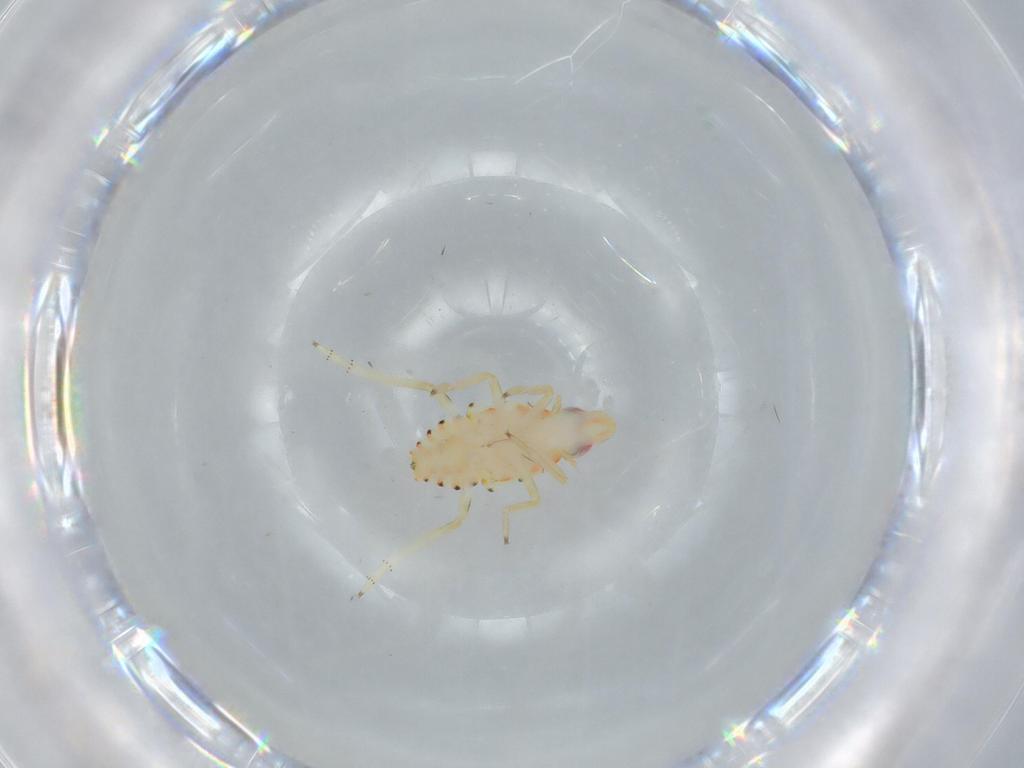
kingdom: Animalia
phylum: Arthropoda
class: Insecta
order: Hemiptera
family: Tropiduchidae
